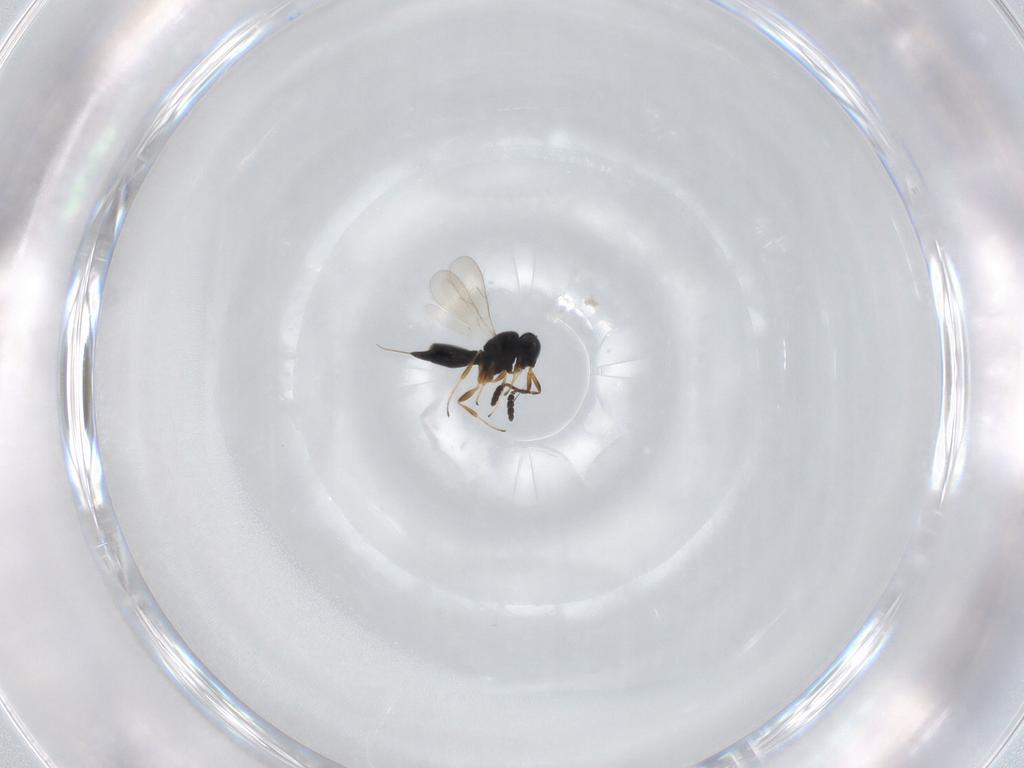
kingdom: Animalia
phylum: Arthropoda
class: Insecta
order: Hymenoptera
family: Scelionidae
